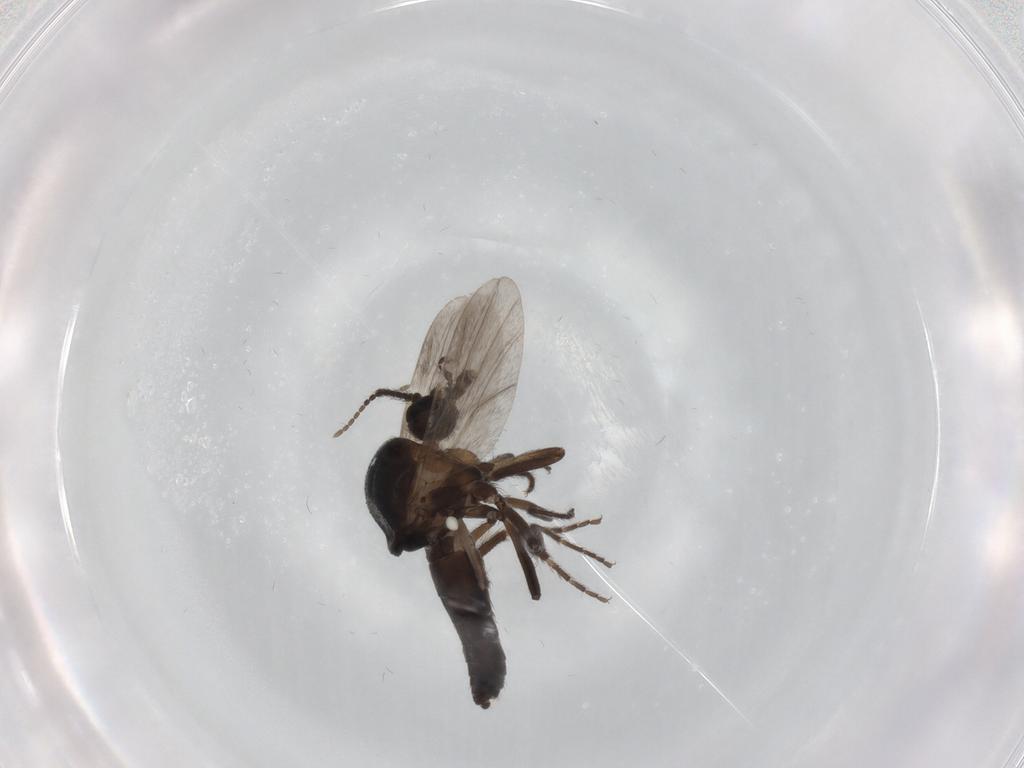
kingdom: Animalia
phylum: Arthropoda
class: Insecta
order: Diptera
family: Ceratopogonidae
